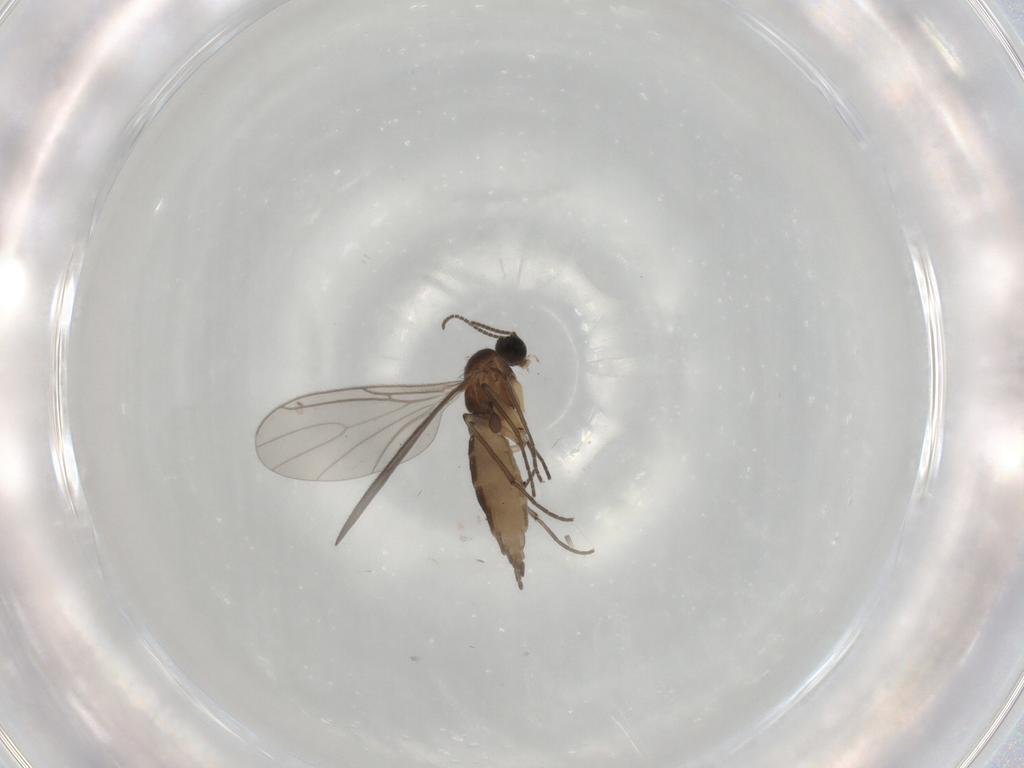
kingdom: Animalia
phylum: Arthropoda
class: Insecta
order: Diptera
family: Sciaridae
